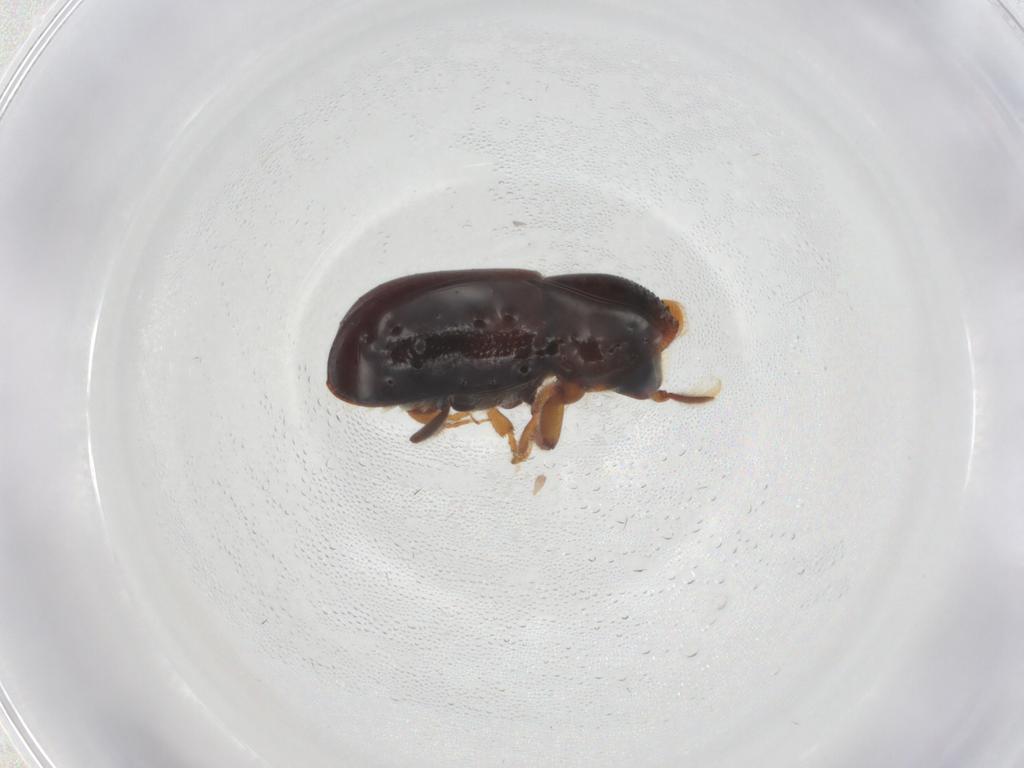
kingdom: Animalia
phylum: Arthropoda
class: Insecta
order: Coleoptera
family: Curculionidae
